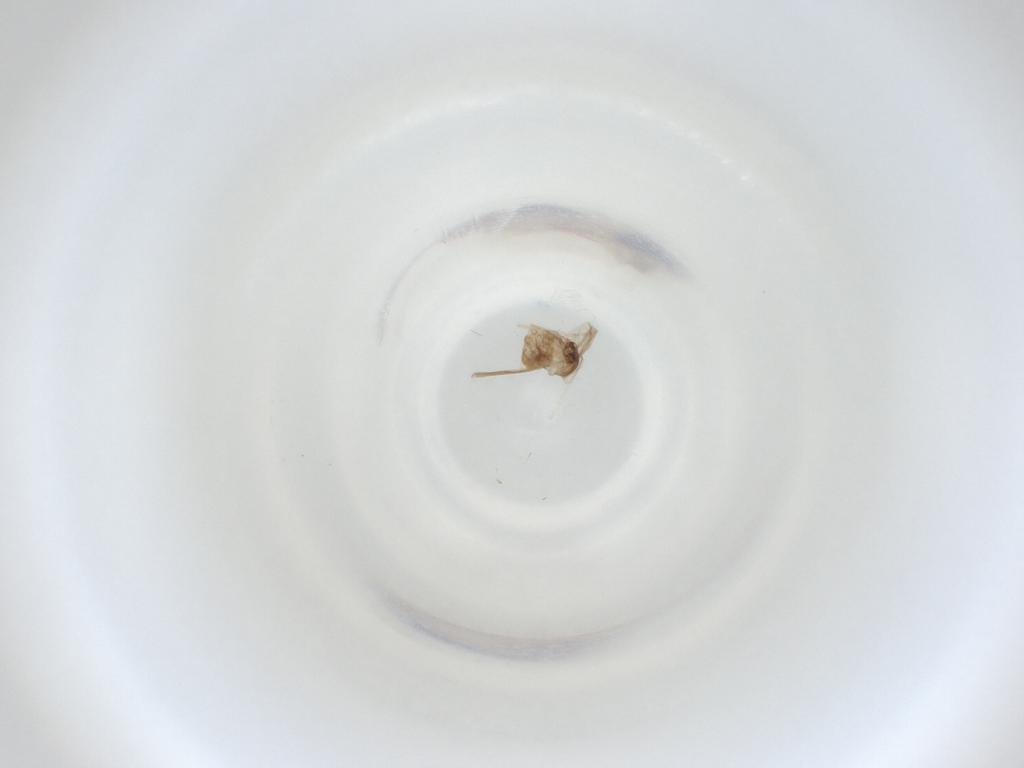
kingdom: Animalia
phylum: Arthropoda
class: Insecta
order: Diptera
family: Cecidomyiidae
